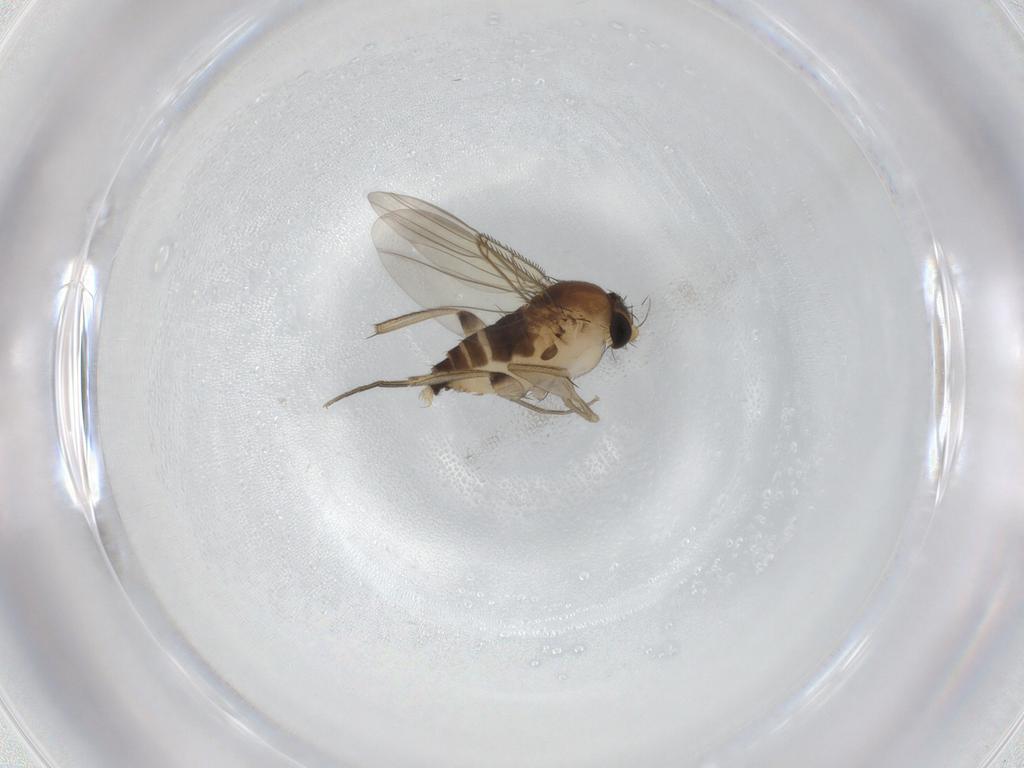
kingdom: Animalia
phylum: Arthropoda
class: Insecta
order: Diptera
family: Phoridae
